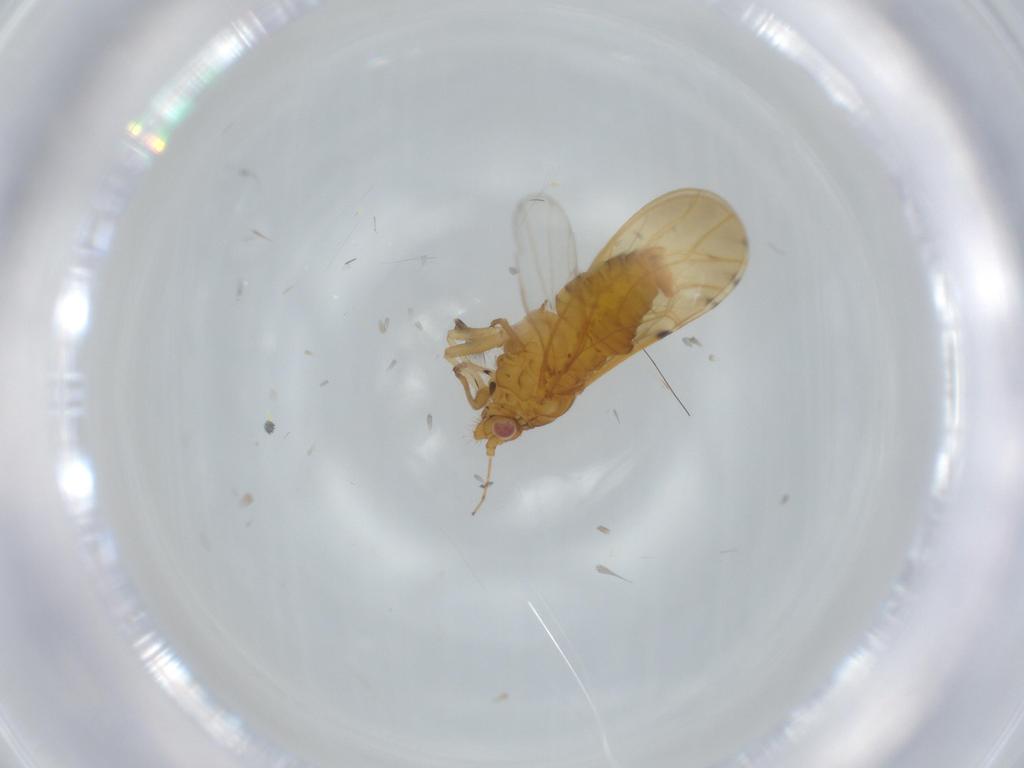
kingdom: Animalia
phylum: Arthropoda
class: Insecta
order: Diptera
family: Cecidomyiidae
